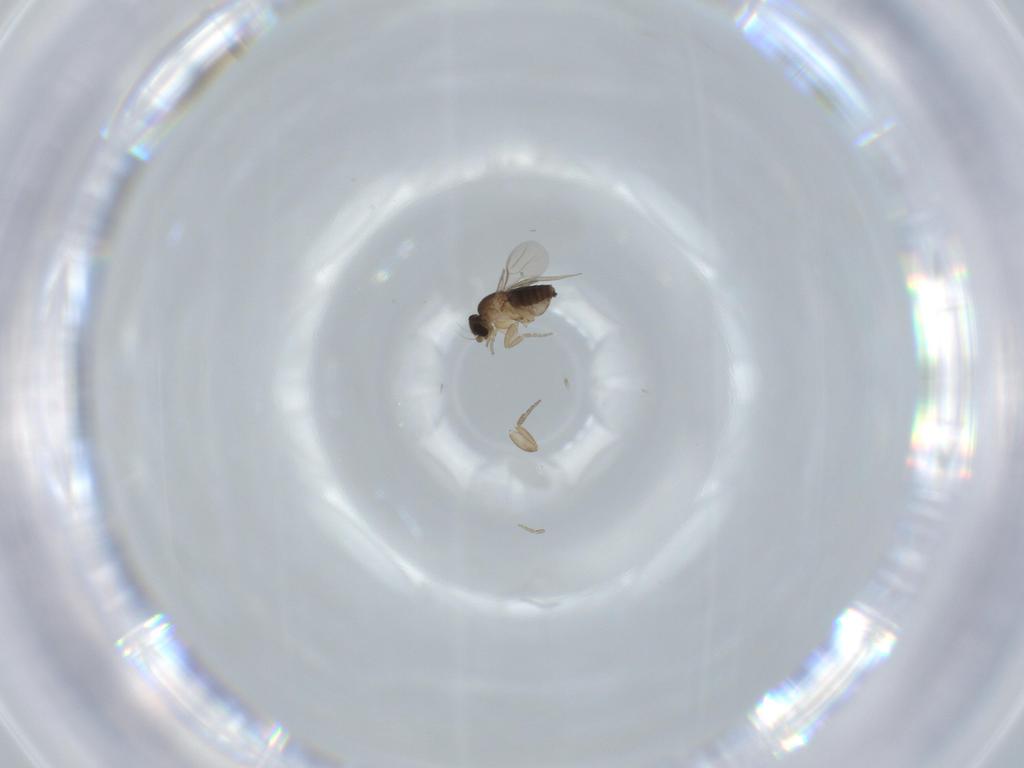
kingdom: Animalia
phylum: Arthropoda
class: Insecta
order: Diptera
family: Phoridae
